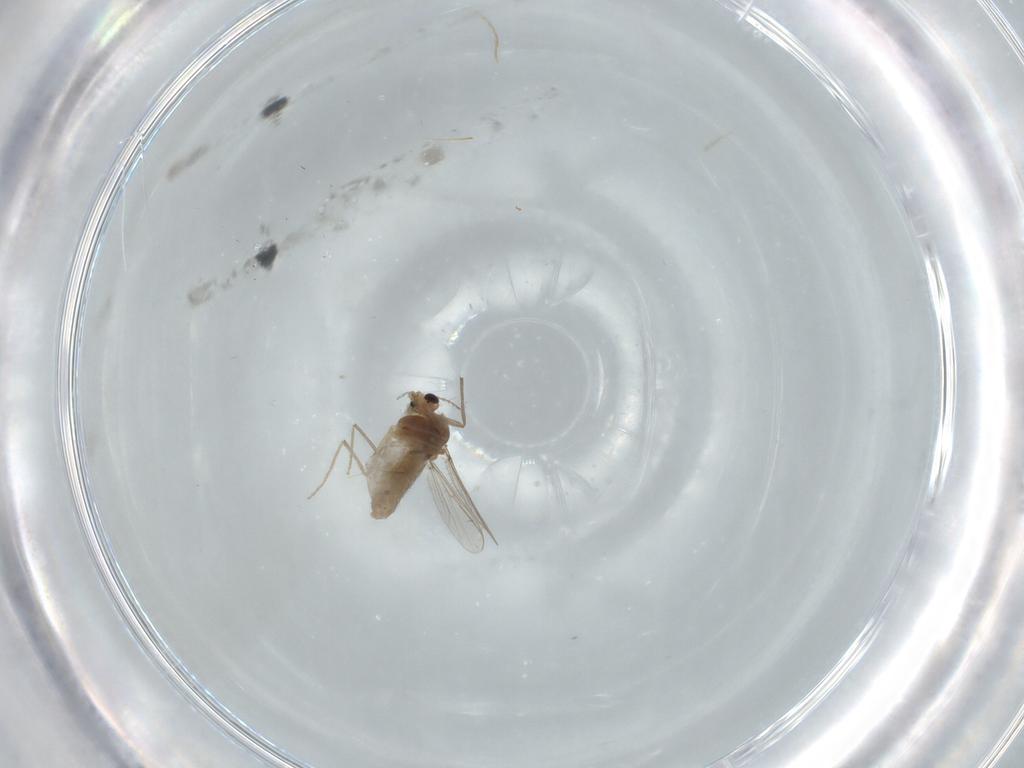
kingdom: Animalia
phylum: Arthropoda
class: Insecta
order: Diptera
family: Chironomidae
